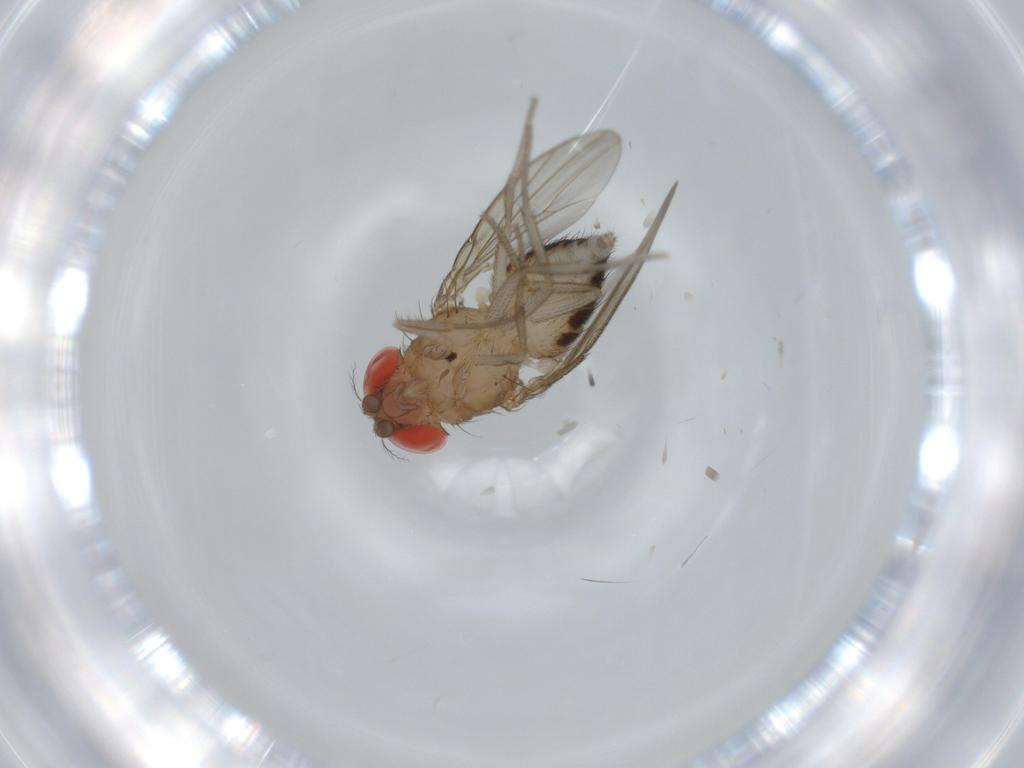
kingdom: Animalia
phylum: Arthropoda
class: Insecta
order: Diptera
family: Drosophilidae
